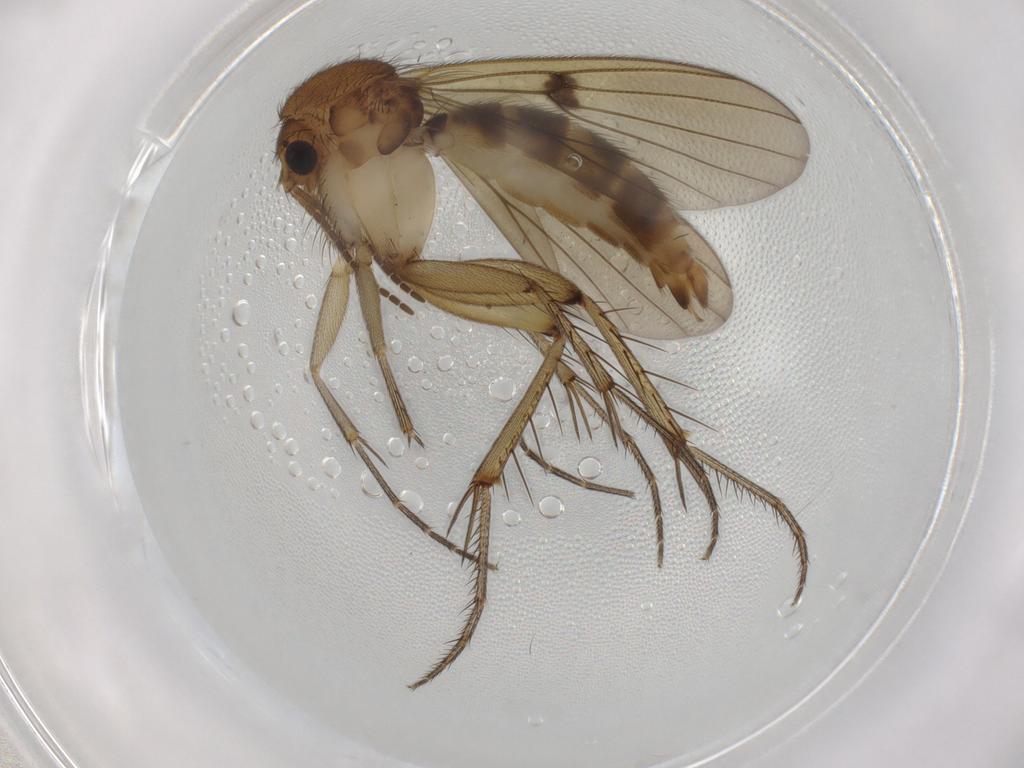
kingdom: Animalia
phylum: Arthropoda
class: Insecta
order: Diptera
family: Mycetophilidae
